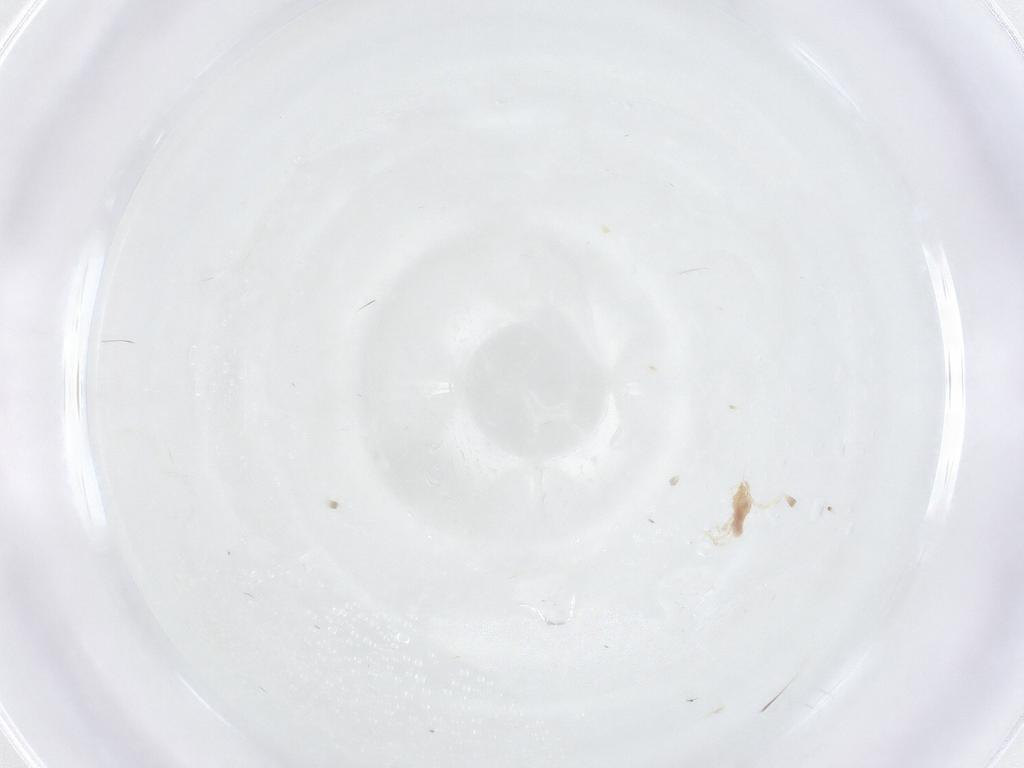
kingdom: Animalia
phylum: Arthropoda
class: Arachnida
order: Trombidiformes
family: Erythraeidae
